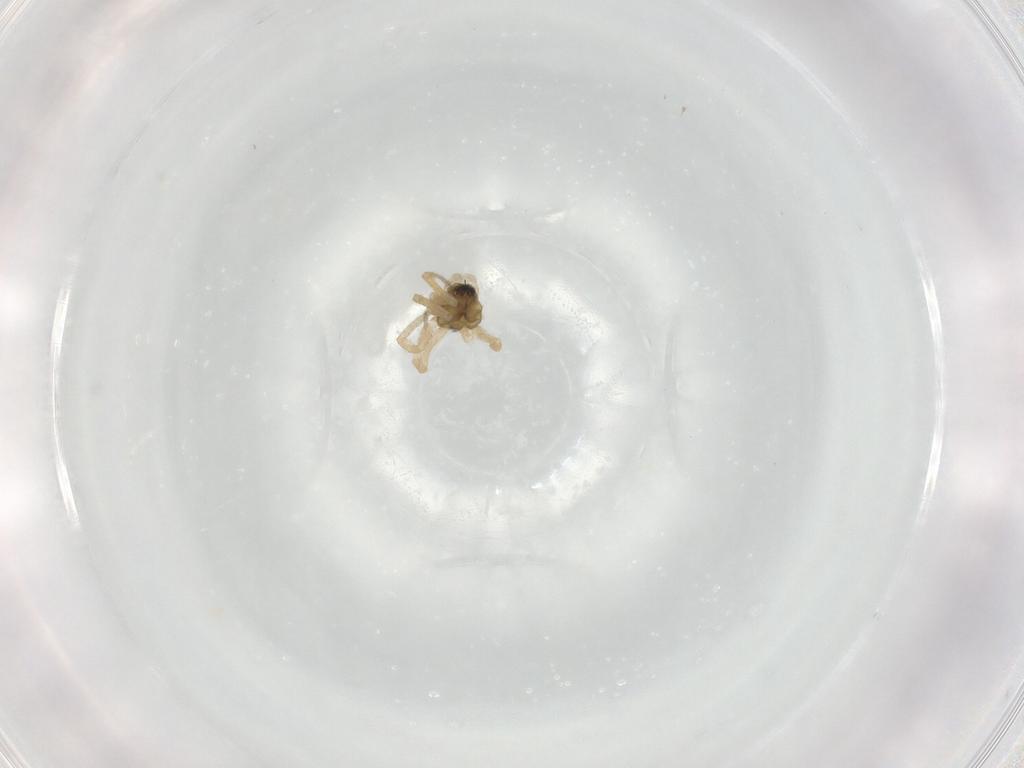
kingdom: Animalia
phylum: Arthropoda
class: Arachnida
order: Araneae
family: Linyphiidae
